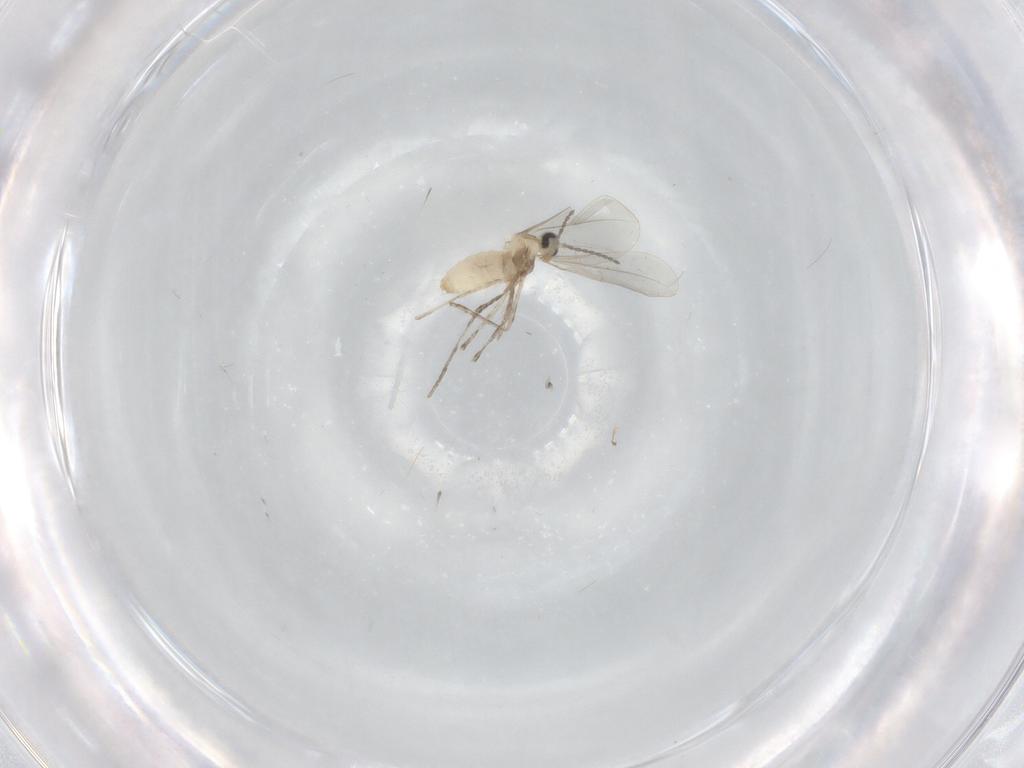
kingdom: Animalia
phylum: Arthropoda
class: Insecta
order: Diptera
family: Cecidomyiidae
